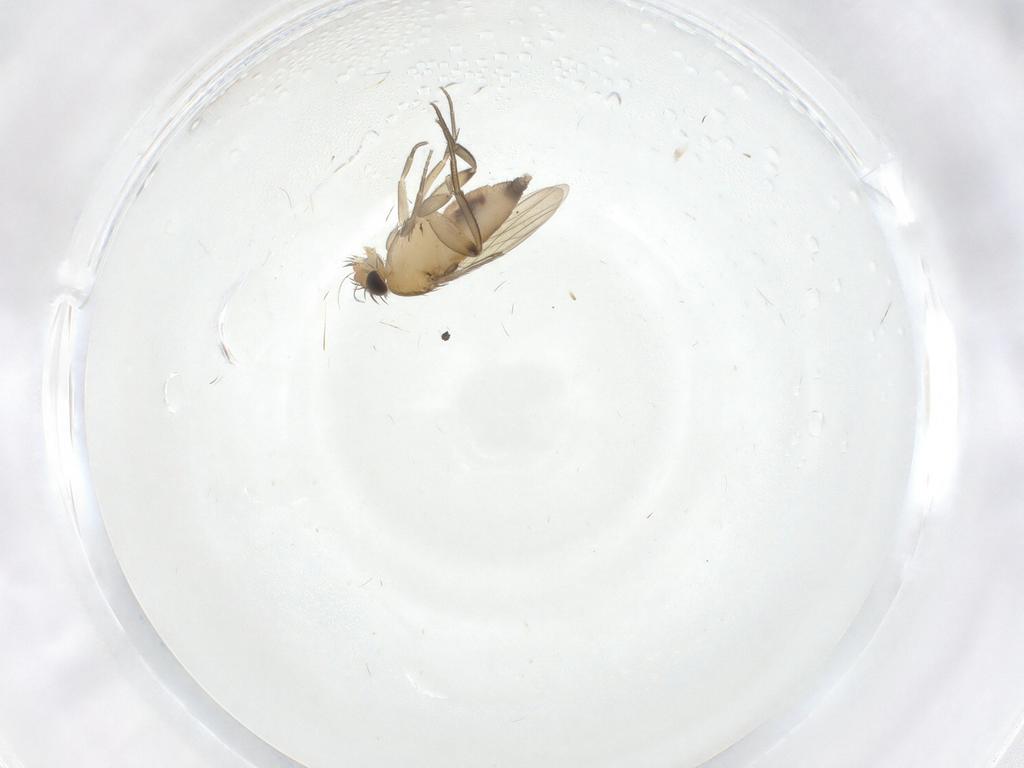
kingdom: Animalia
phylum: Arthropoda
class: Insecta
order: Diptera
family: Phoridae
